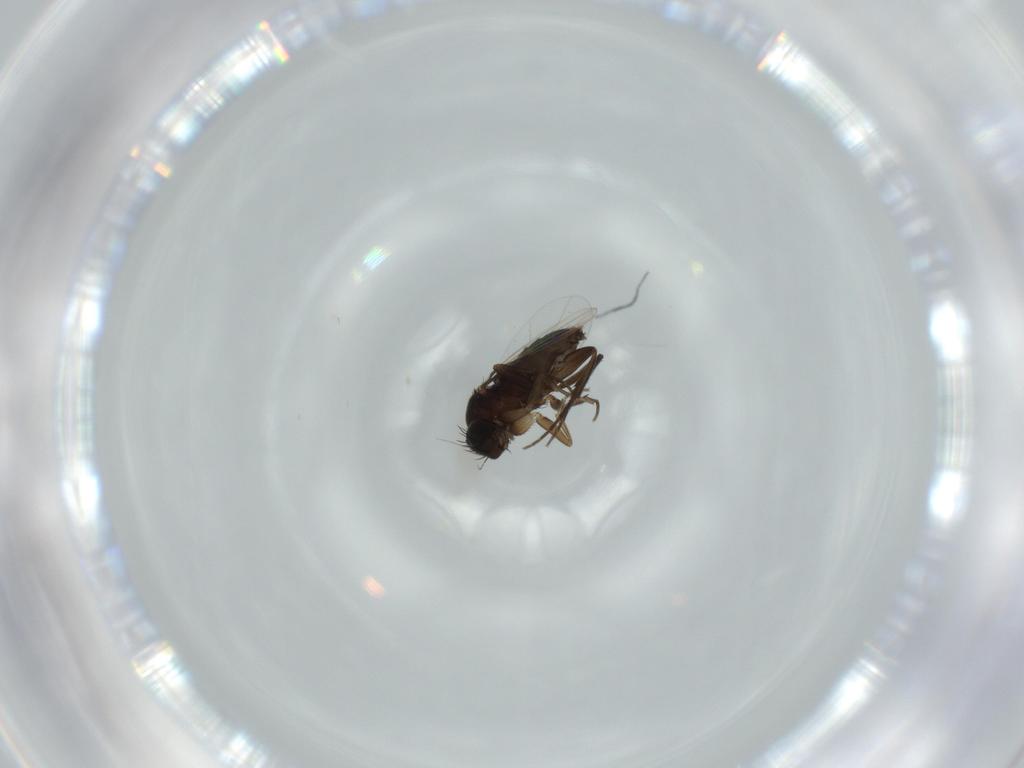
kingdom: Animalia
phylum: Arthropoda
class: Insecta
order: Diptera
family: Phoridae
